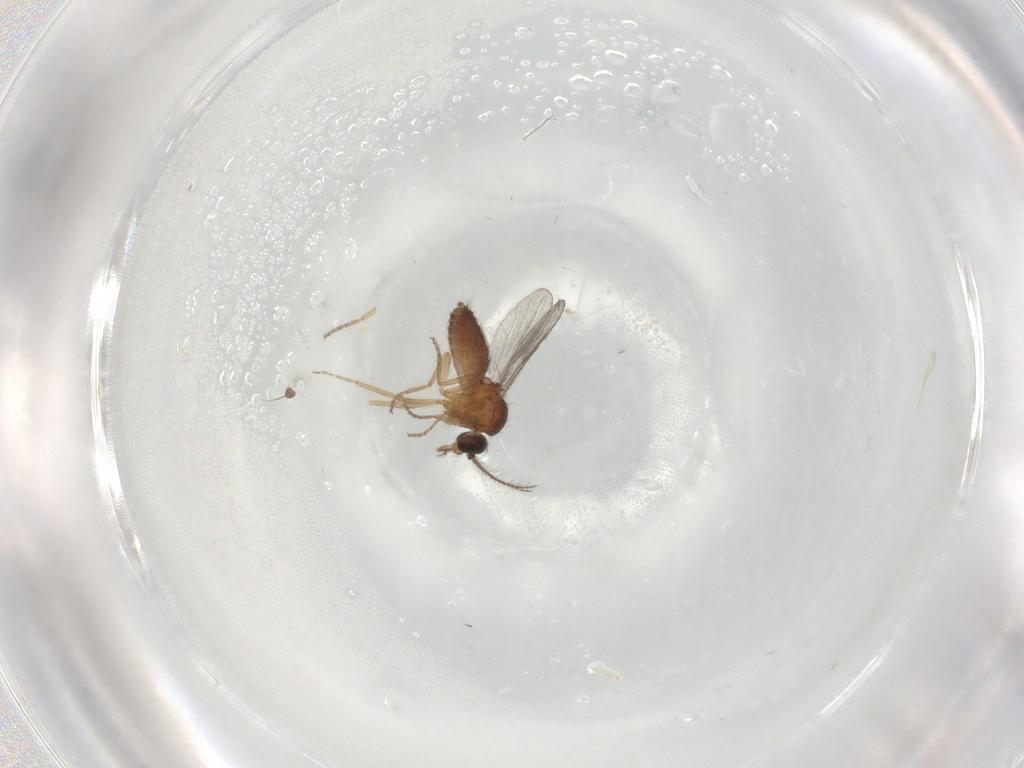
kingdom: Animalia
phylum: Arthropoda
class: Insecta
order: Diptera
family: Ceratopogonidae
